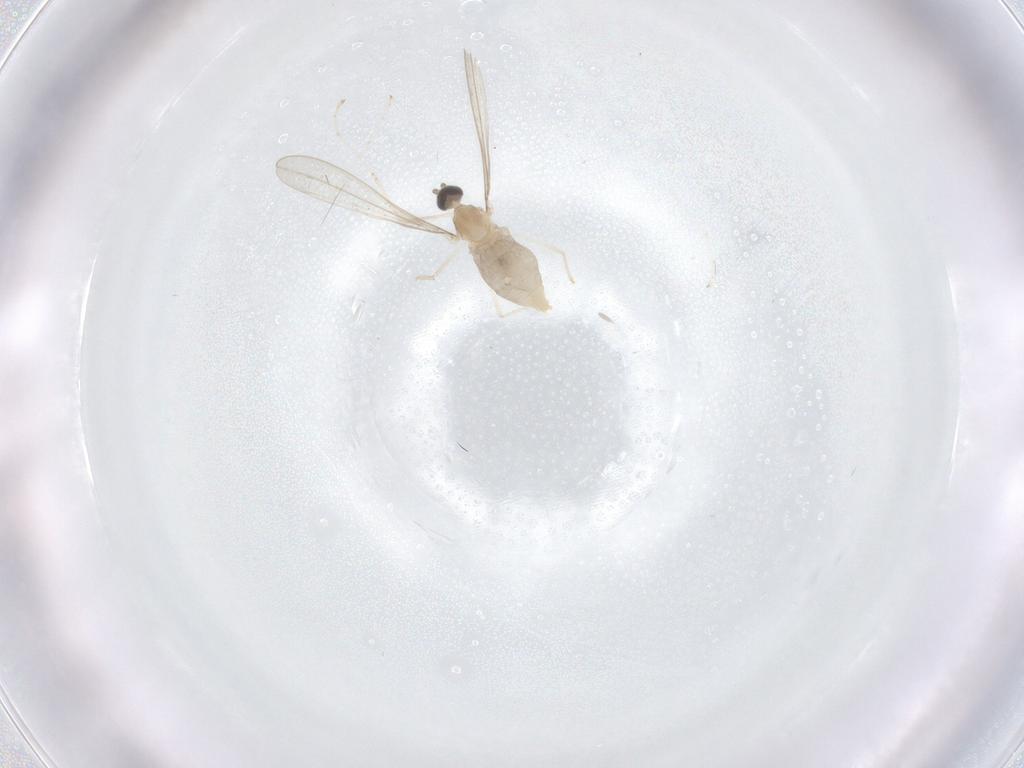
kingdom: Animalia
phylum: Arthropoda
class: Insecta
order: Diptera
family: Cecidomyiidae
